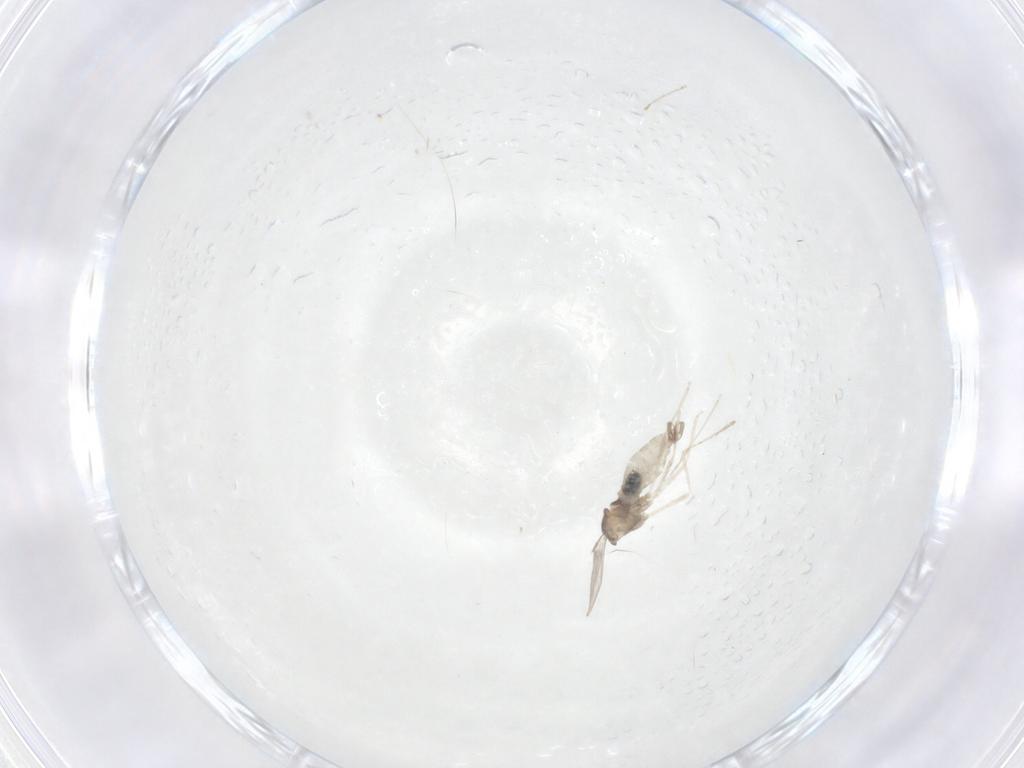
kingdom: Animalia
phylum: Arthropoda
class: Insecta
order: Diptera
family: Cecidomyiidae
